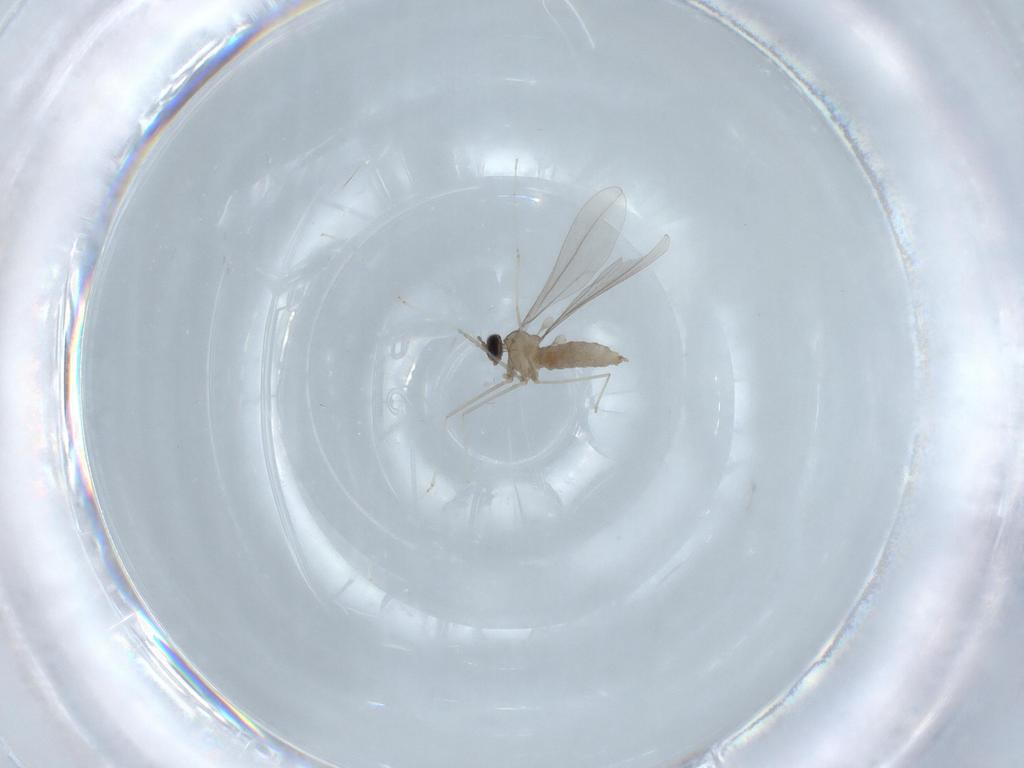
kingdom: Animalia
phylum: Arthropoda
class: Insecta
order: Diptera
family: Cecidomyiidae
